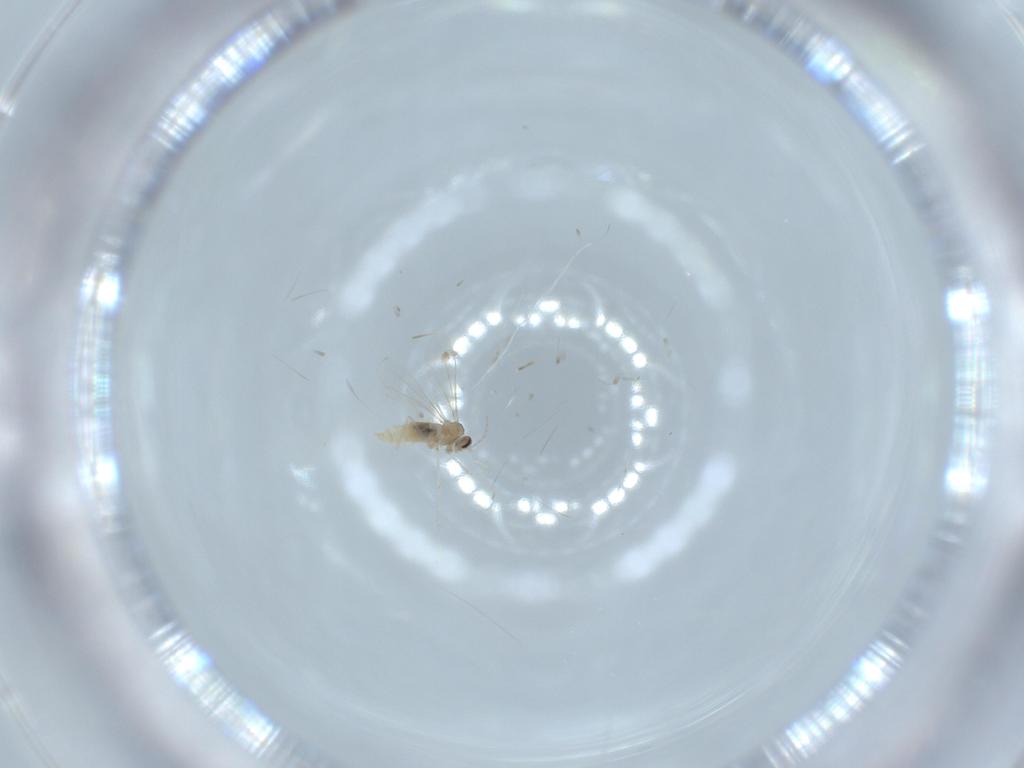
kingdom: Animalia
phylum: Arthropoda
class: Insecta
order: Diptera
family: Cecidomyiidae
